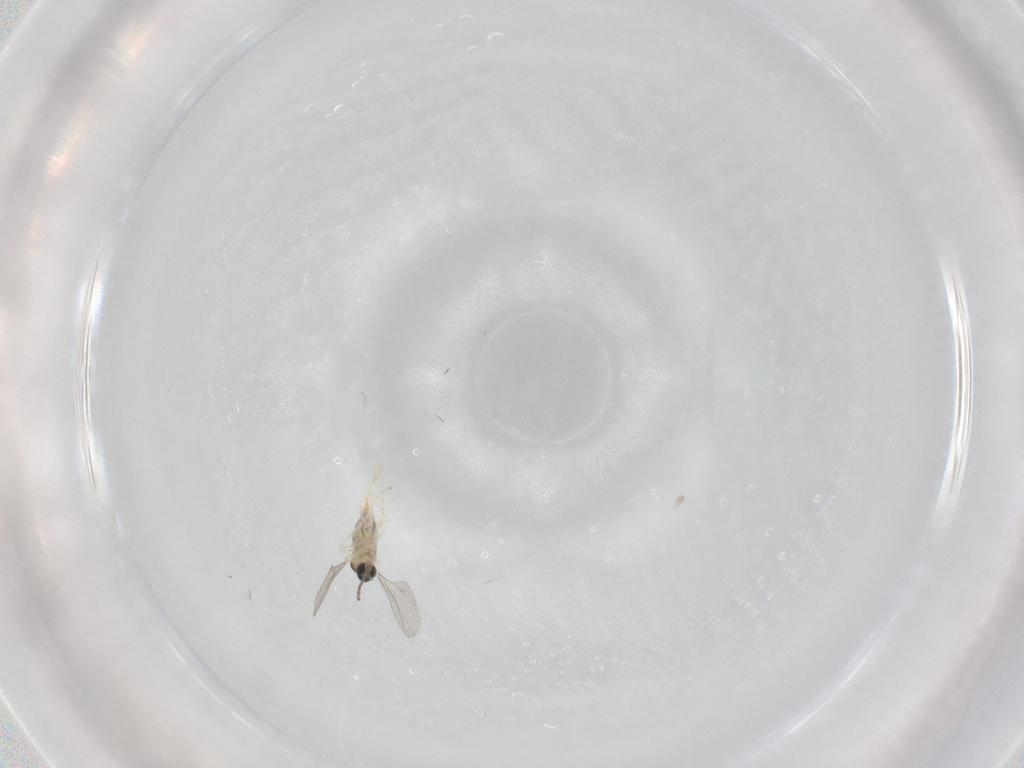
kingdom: Animalia
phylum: Arthropoda
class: Insecta
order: Diptera
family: Cecidomyiidae
